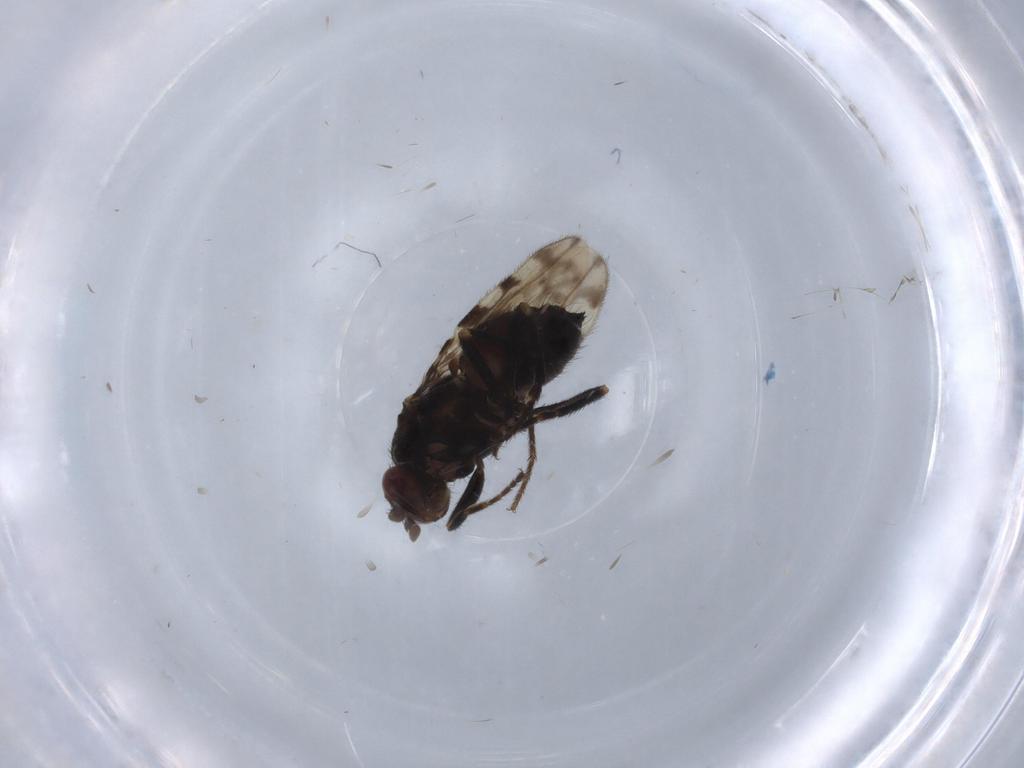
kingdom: Animalia
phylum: Arthropoda
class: Insecta
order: Diptera
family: Sphaeroceridae
